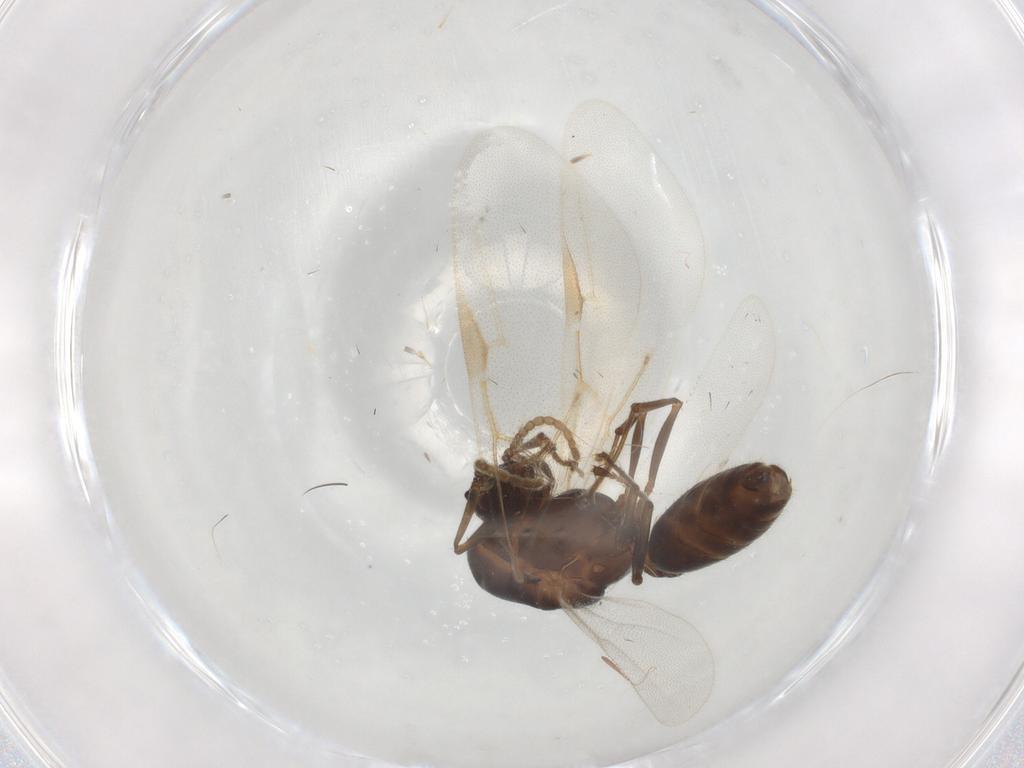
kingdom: Animalia
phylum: Arthropoda
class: Insecta
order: Hymenoptera
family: Formicidae
